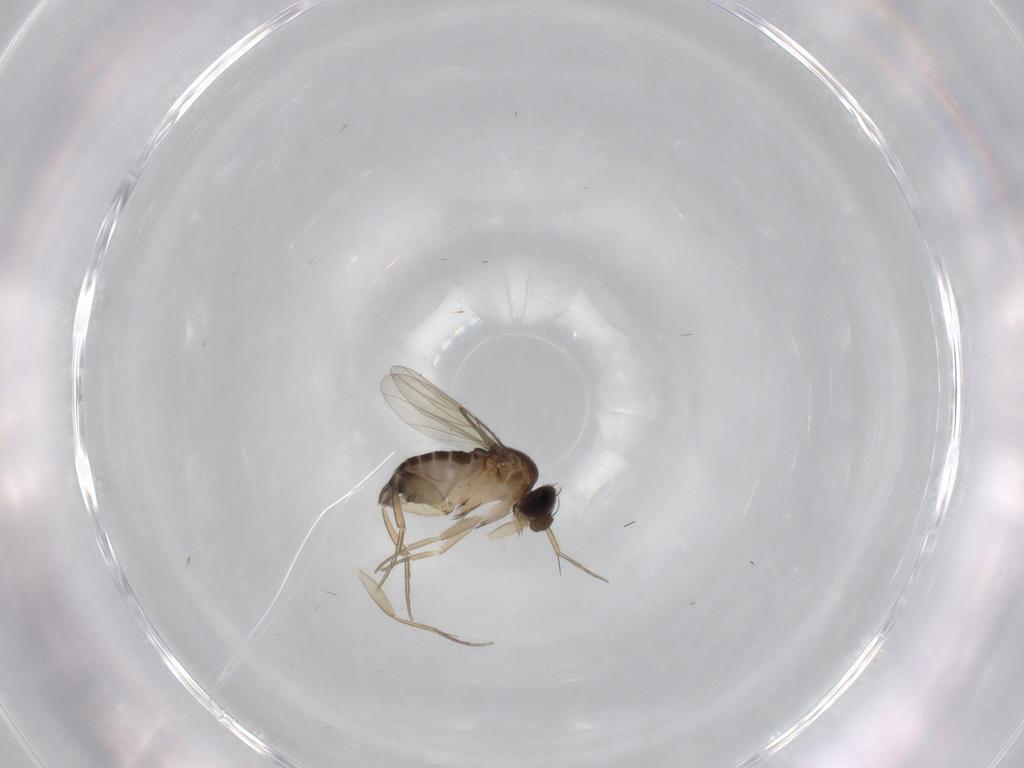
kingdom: Animalia
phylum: Arthropoda
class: Insecta
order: Diptera
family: Phoridae
